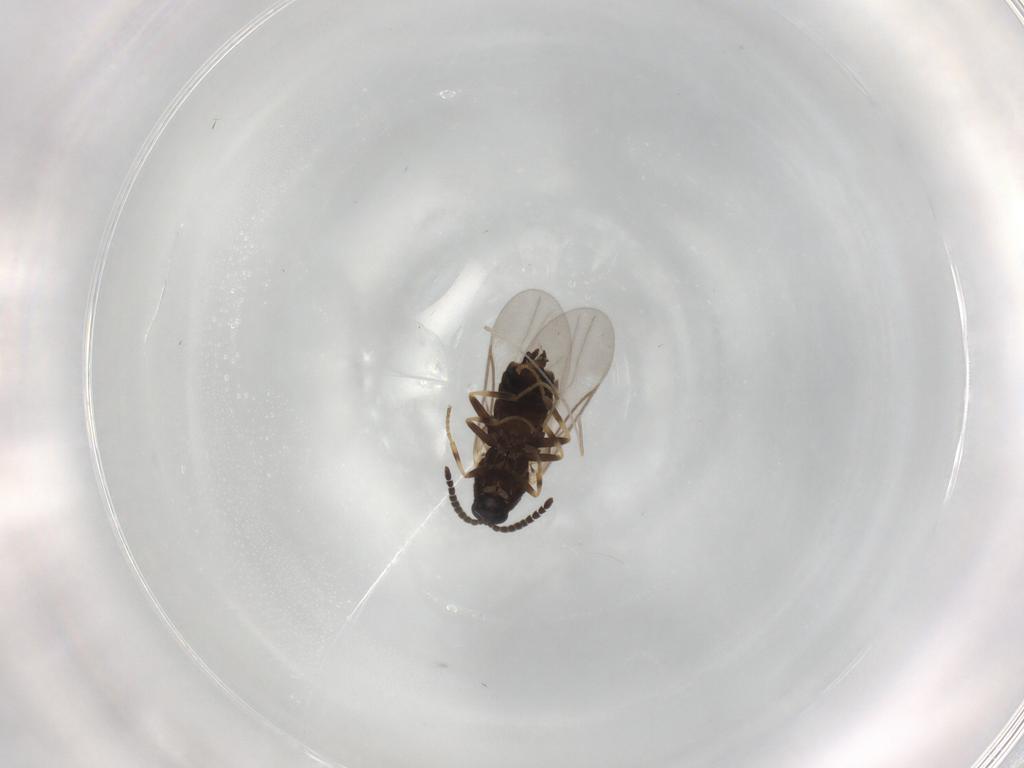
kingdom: Animalia
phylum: Arthropoda
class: Insecta
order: Diptera
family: Scatopsidae
